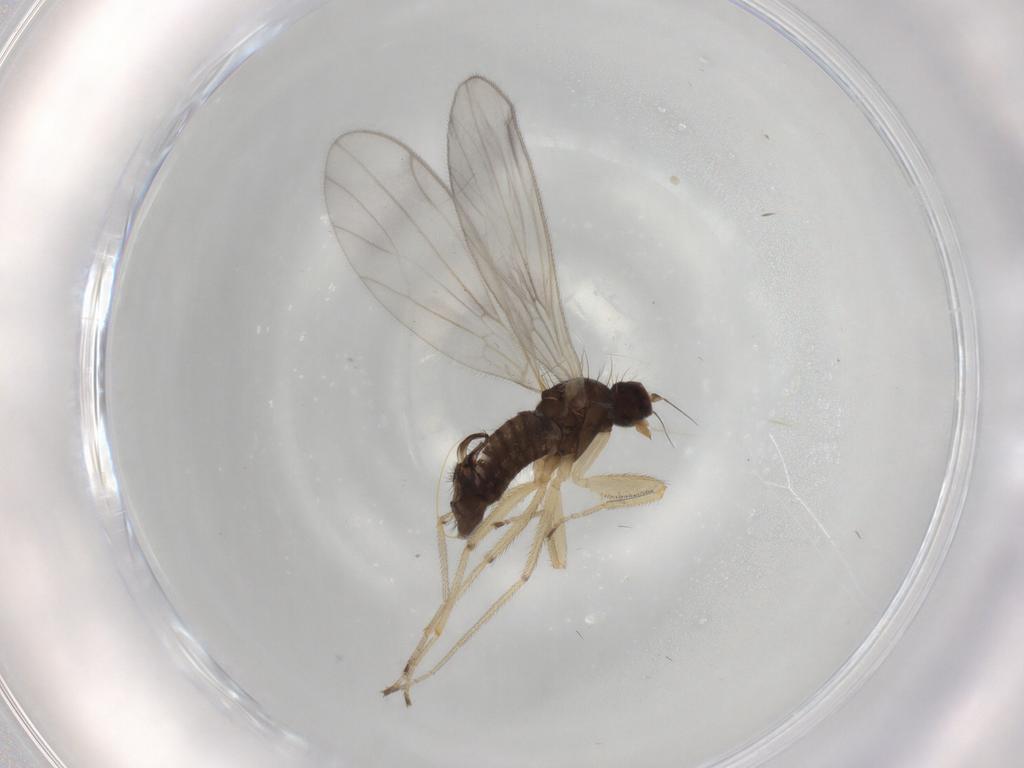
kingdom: Animalia
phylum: Arthropoda
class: Insecta
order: Diptera
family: Empididae
